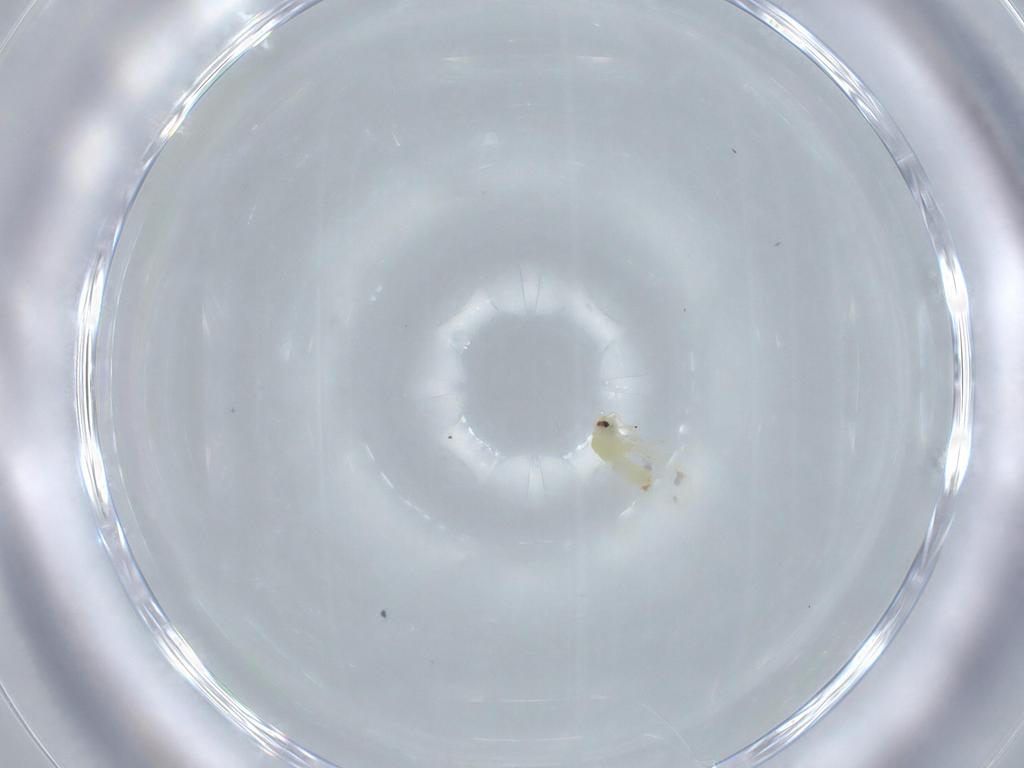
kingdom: Animalia
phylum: Arthropoda
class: Insecta
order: Hemiptera
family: Aleyrodidae
